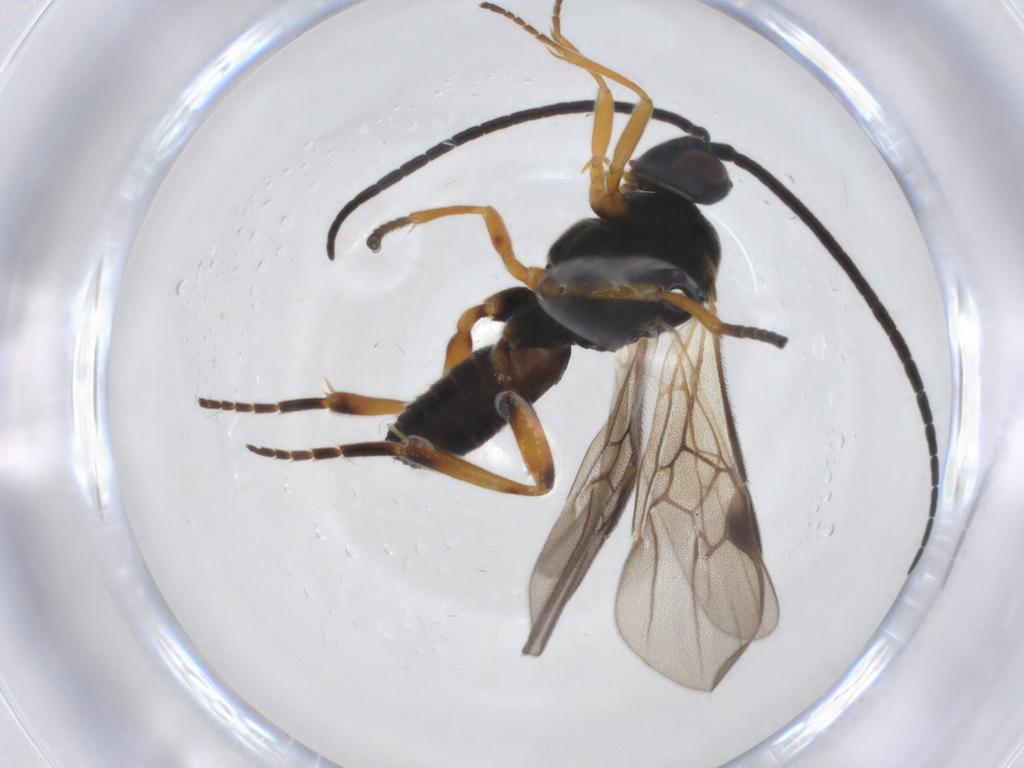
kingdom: Animalia
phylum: Arthropoda
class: Insecta
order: Hymenoptera
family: Braconidae
